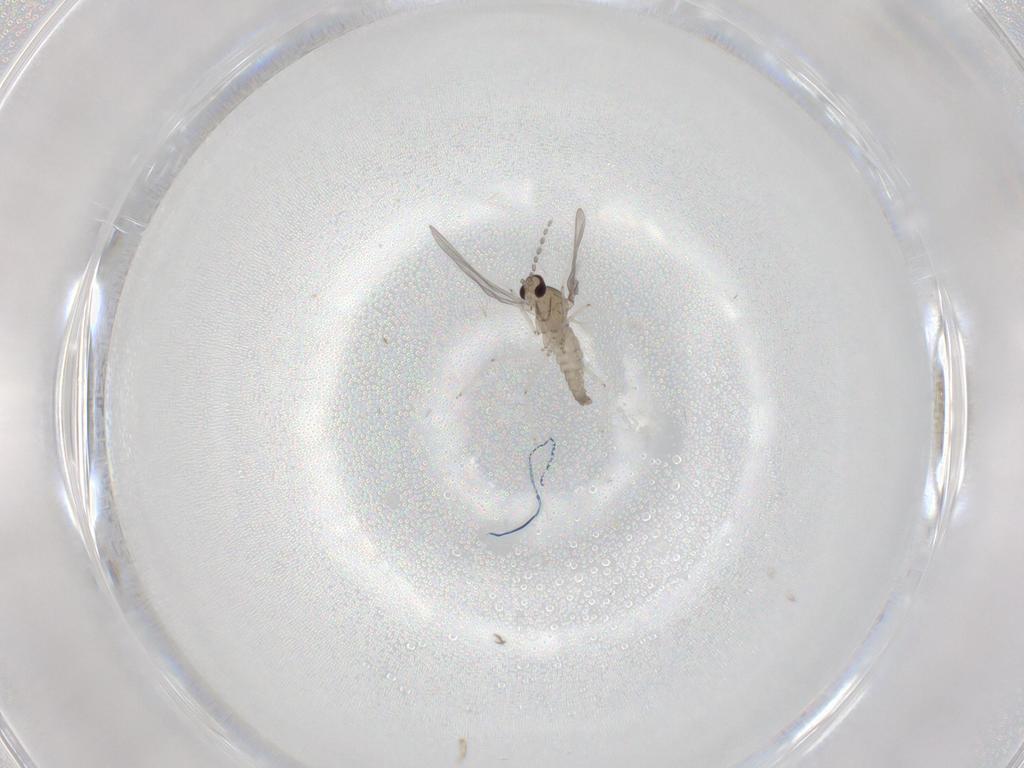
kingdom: Animalia
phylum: Arthropoda
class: Insecta
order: Diptera
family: Cecidomyiidae
